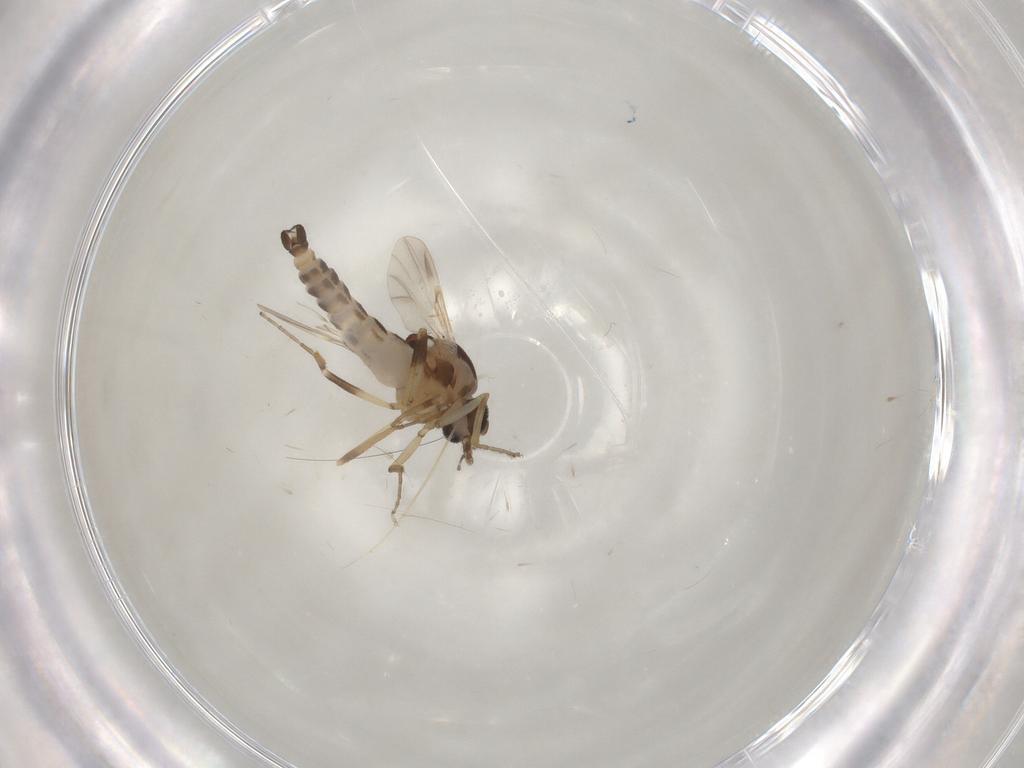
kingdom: Animalia
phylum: Arthropoda
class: Insecta
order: Diptera
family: Ceratopogonidae
